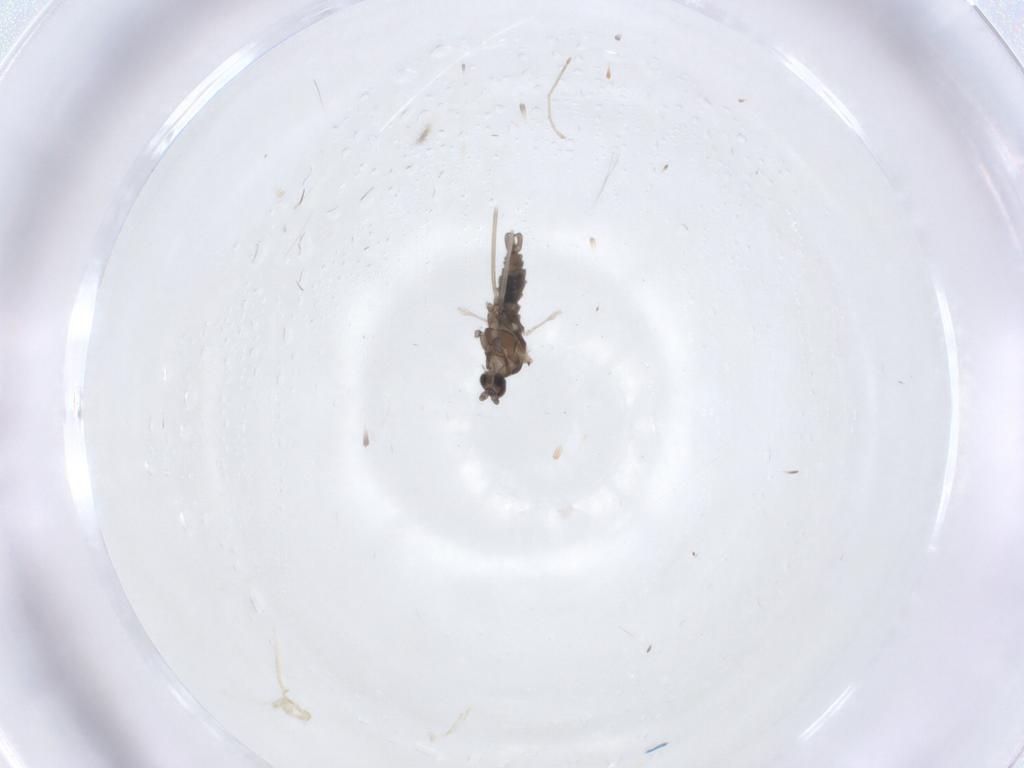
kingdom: Animalia
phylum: Arthropoda
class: Insecta
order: Diptera
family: Cecidomyiidae
